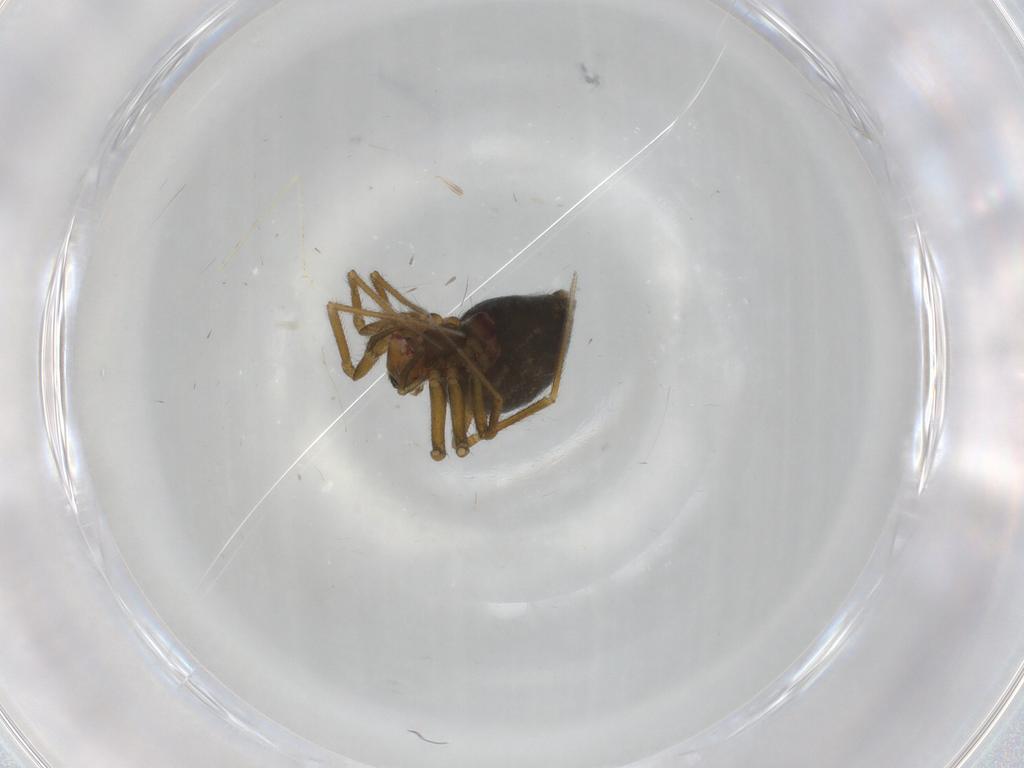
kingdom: Animalia
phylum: Arthropoda
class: Arachnida
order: Araneae
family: Linyphiidae
